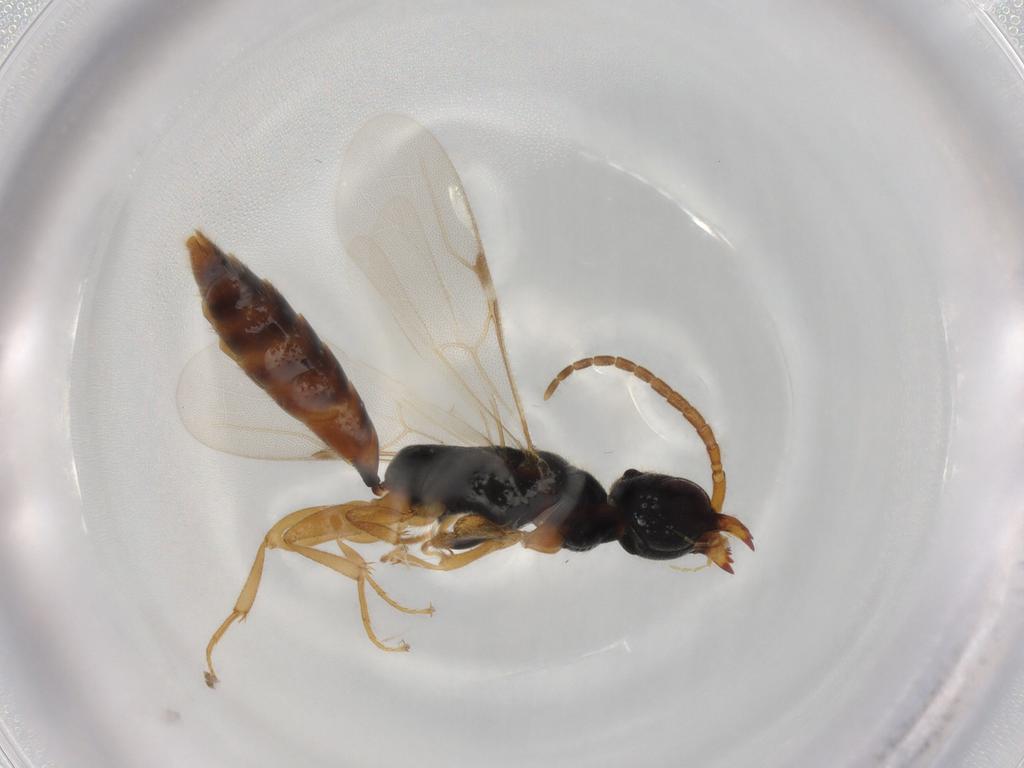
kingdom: Animalia
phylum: Arthropoda
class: Insecta
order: Hymenoptera
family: Bethylidae
